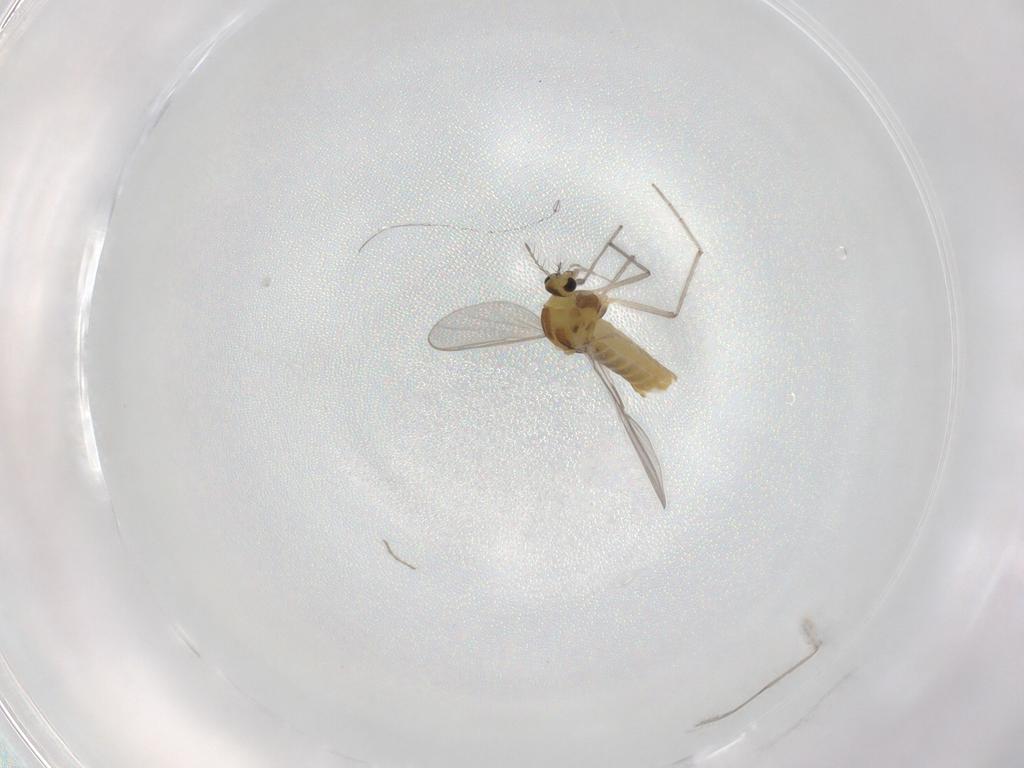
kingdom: Animalia
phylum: Arthropoda
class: Insecta
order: Diptera
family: Chironomidae
